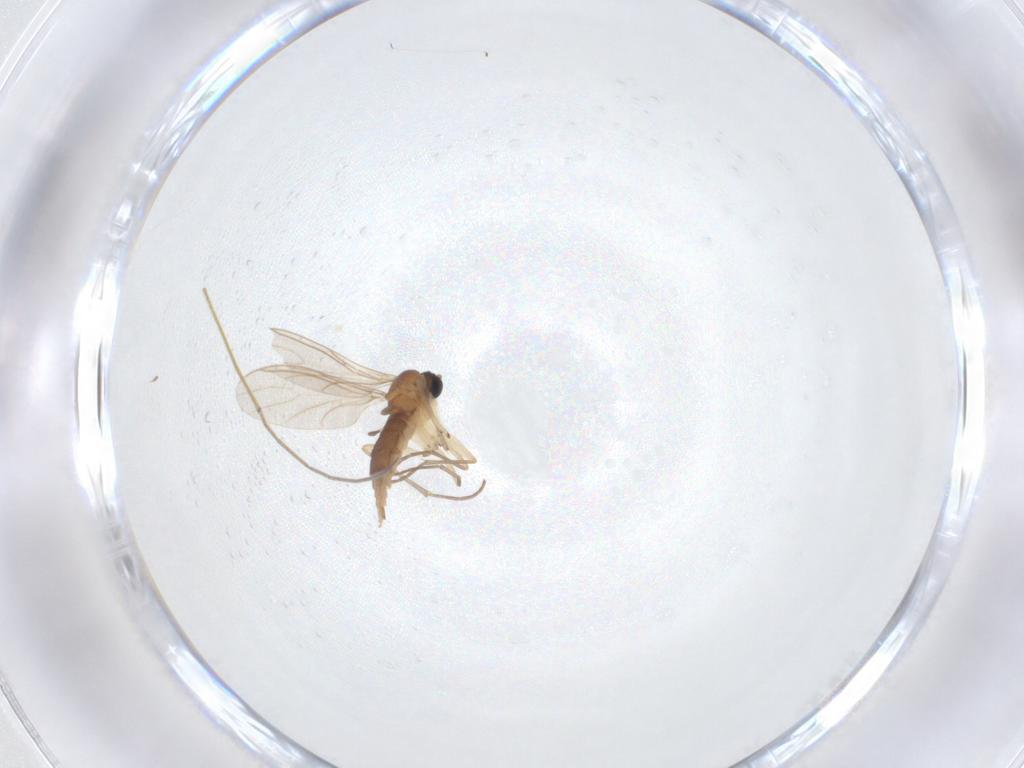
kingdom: Animalia
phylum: Arthropoda
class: Insecta
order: Diptera
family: Sciaridae
